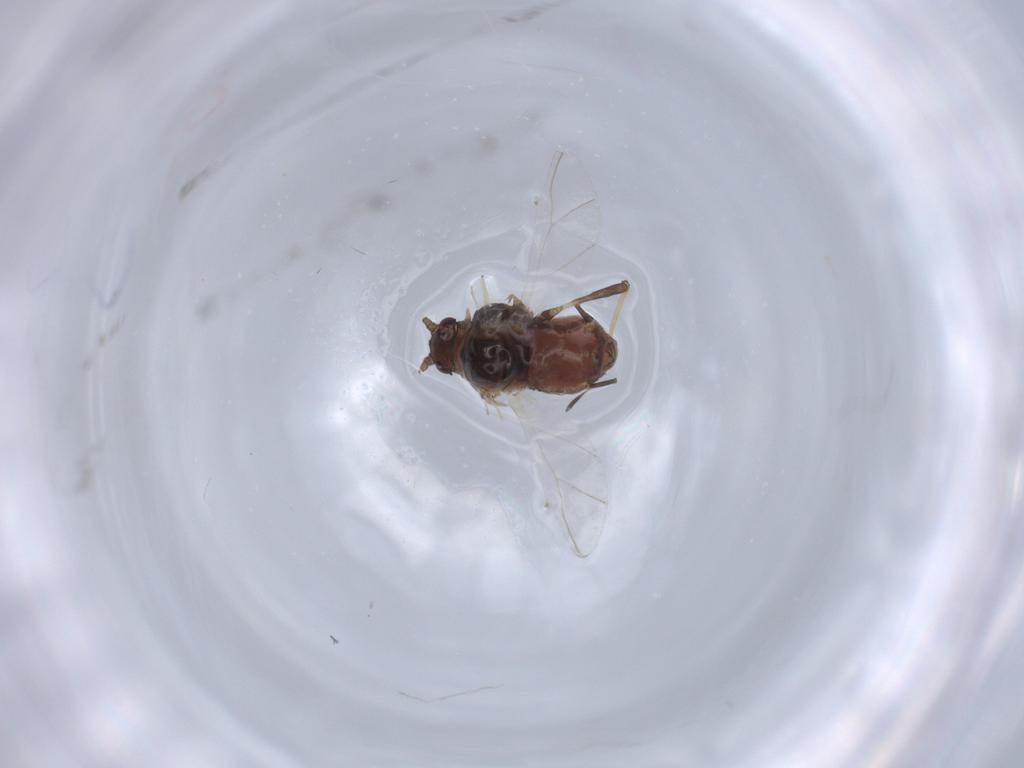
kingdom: Animalia
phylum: Arthropoda
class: Insecta
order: Hemiptera
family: Aphididae
